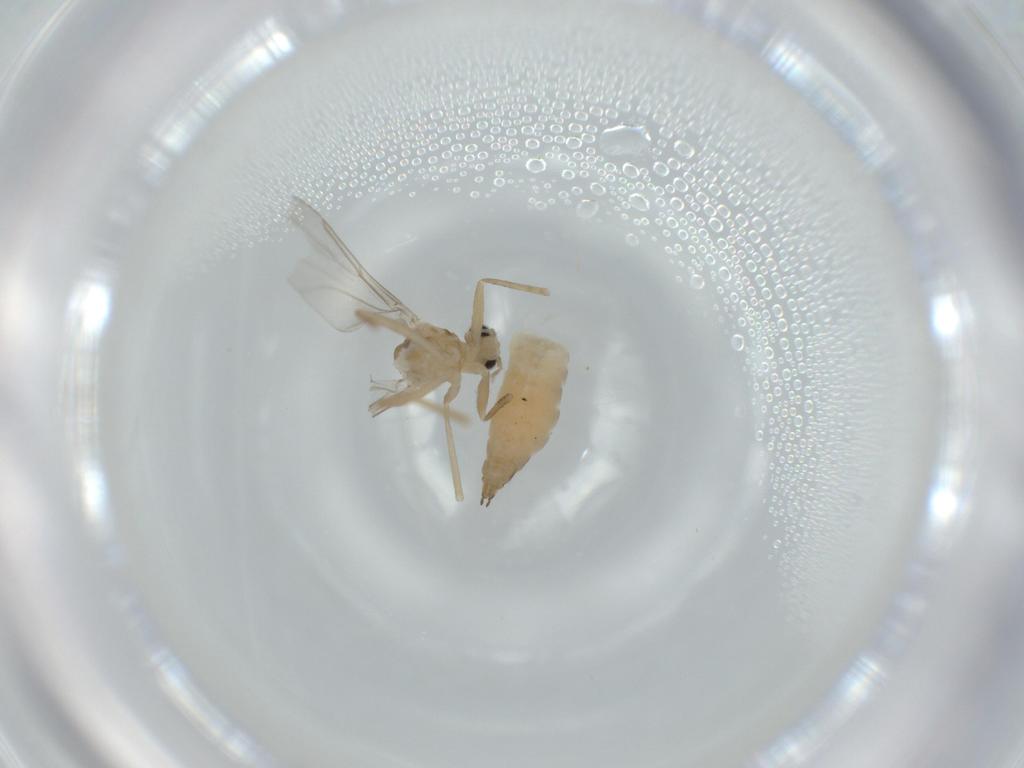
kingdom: Animalia
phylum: Arthropoda
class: Insecta
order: Diptera
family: Cecidomyiidae
